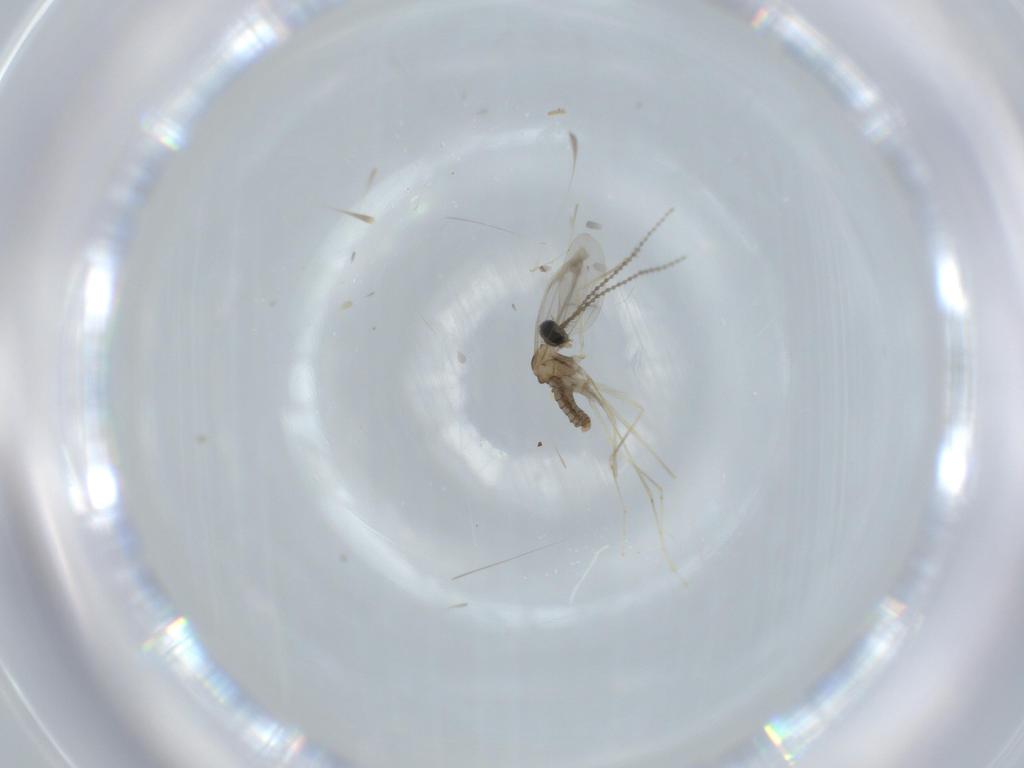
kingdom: Animalia
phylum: Arthropoda
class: Insecta
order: Diptera
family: Cecidomyiidae
